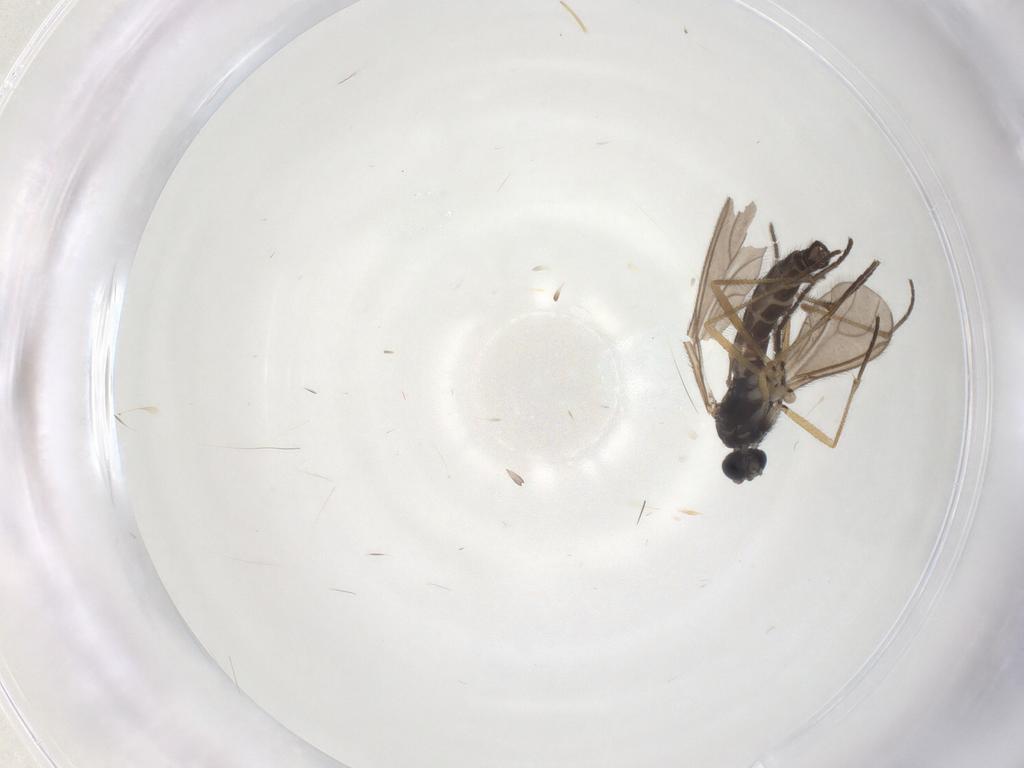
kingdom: Animalia
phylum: Arthropoda
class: Insecta
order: Diptera
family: Sciaridae
